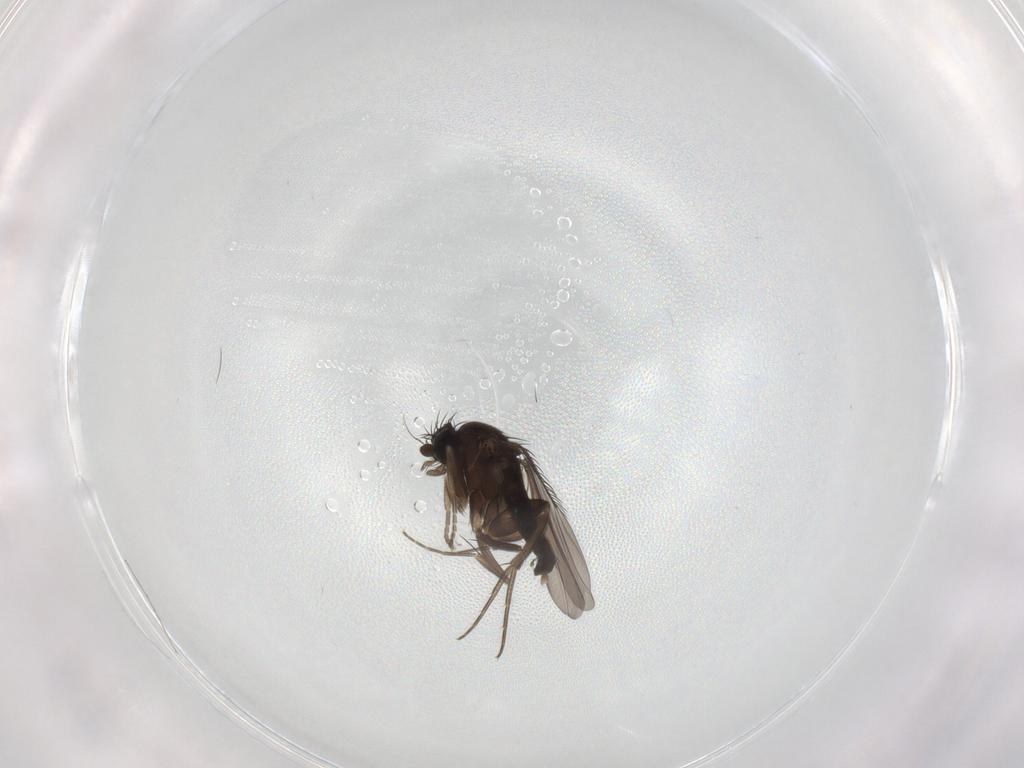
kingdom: Animalia
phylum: Arthropoda
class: Insecta
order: Diptera
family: Phoridae
